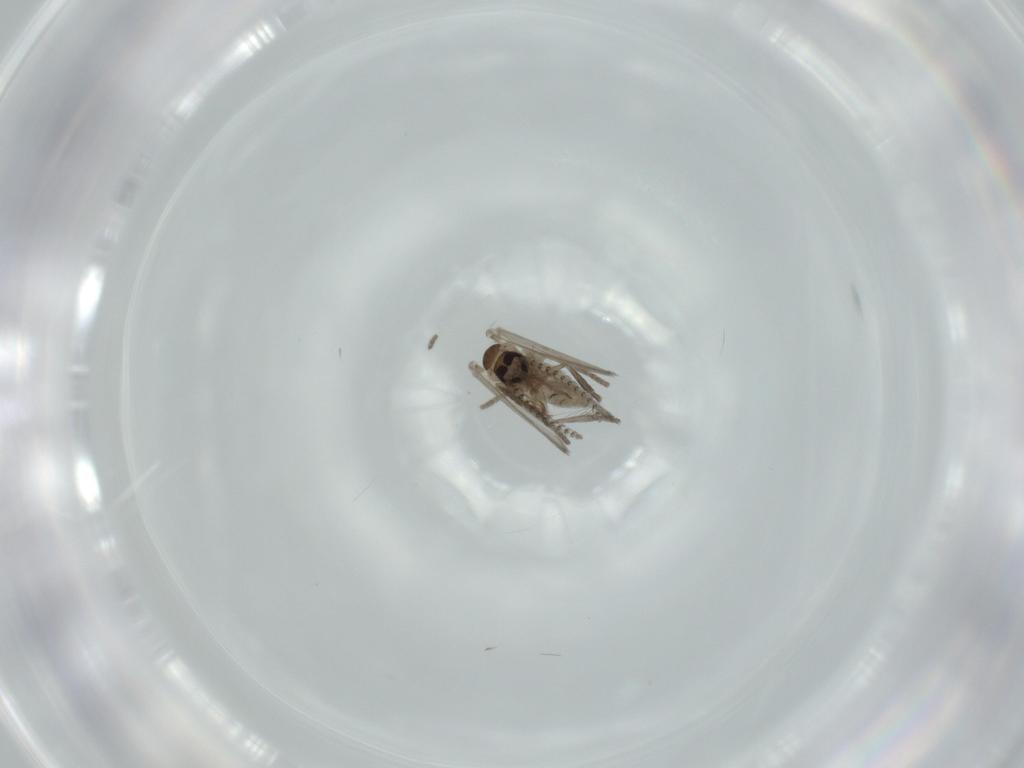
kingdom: Animalia
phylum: Arthropoda
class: Insecta
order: Diptera
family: Psychodidae
